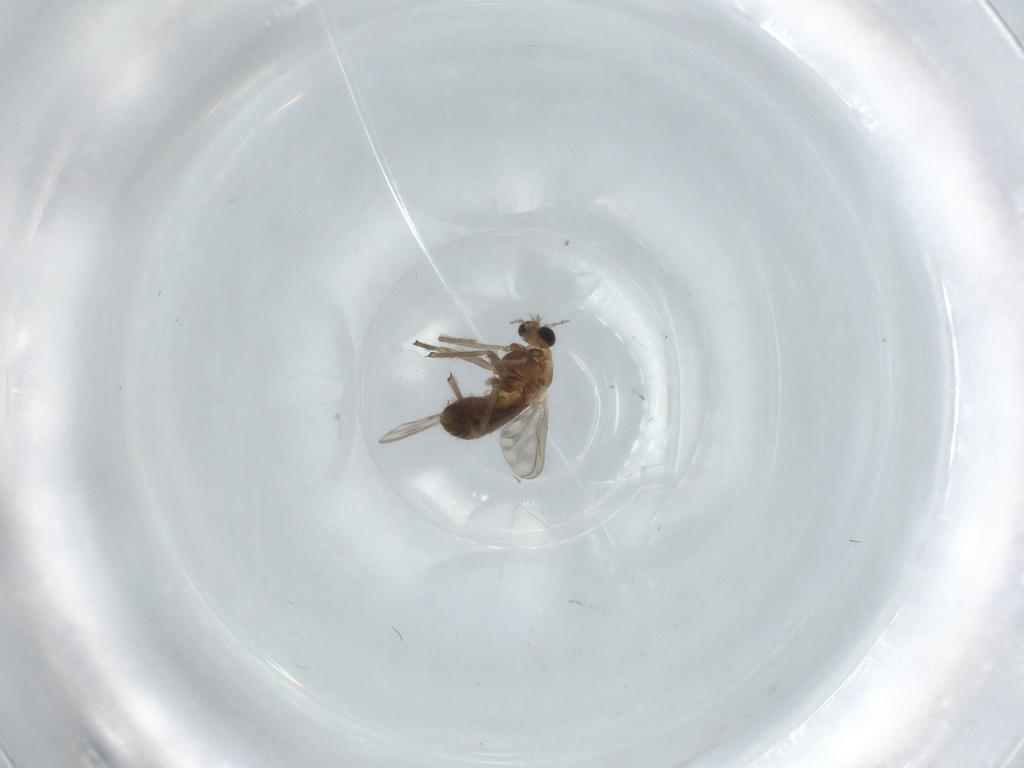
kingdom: Animalia
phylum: Arthropoda
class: Insecta
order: Diptera
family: Chironomidae
